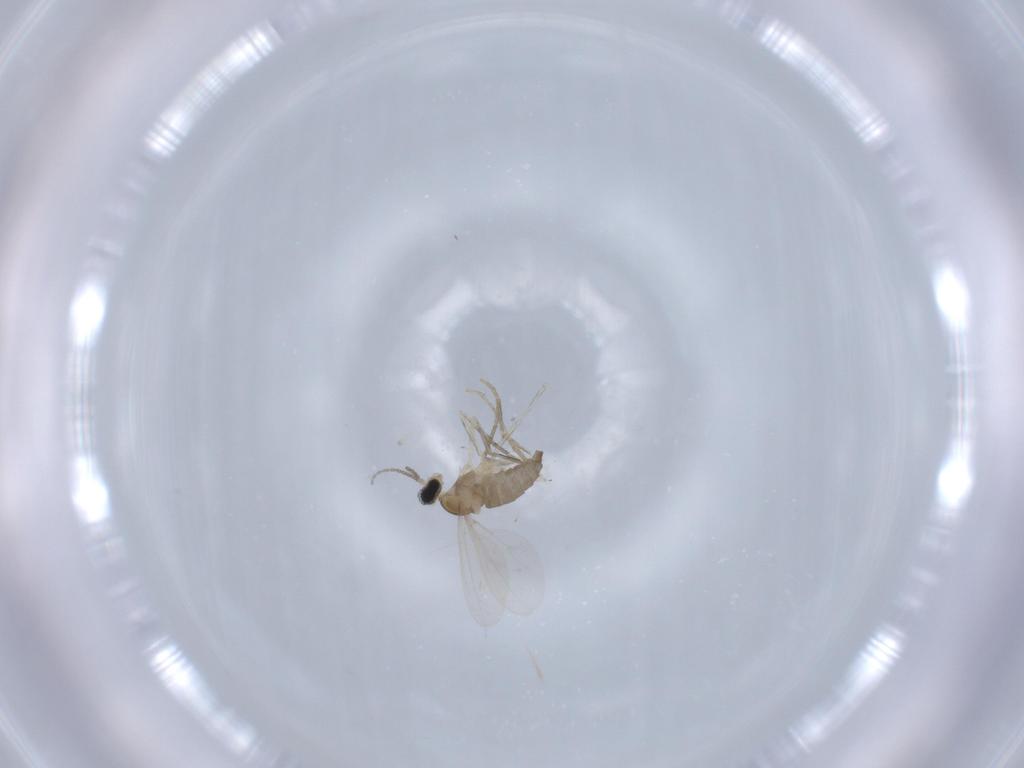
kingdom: Animalia
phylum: Arthropoda
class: Insecta
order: Diptera
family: Cecidomyiidae
